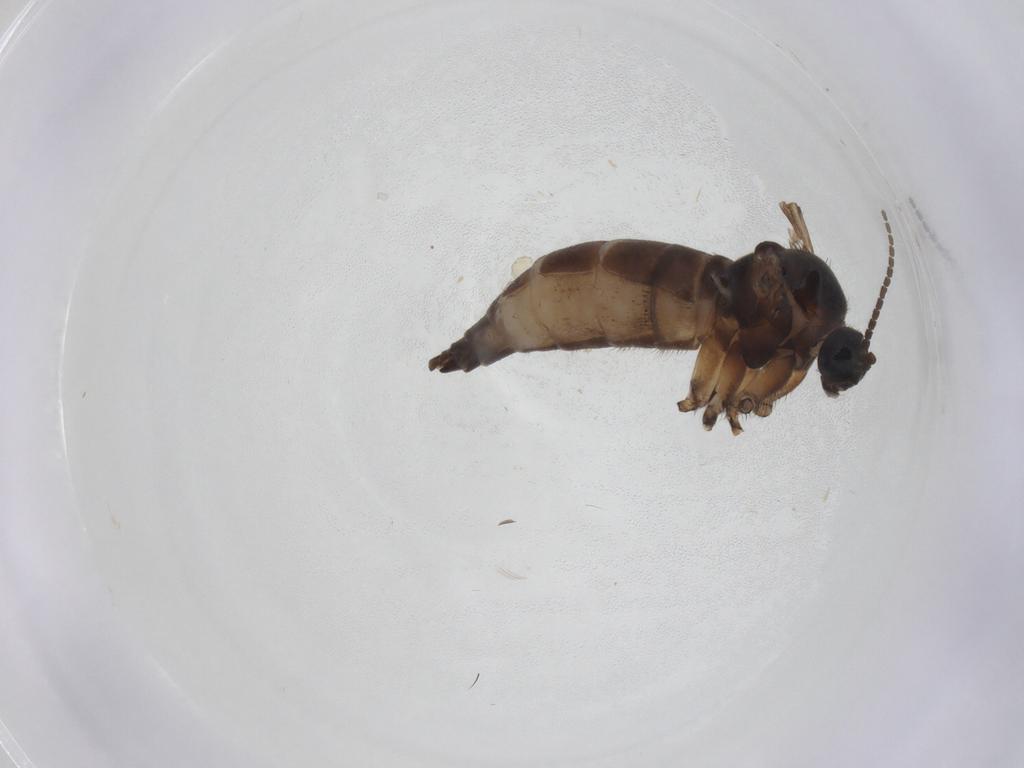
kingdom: Animalia
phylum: Arthropoda
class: Insecta
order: Diptera
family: Sciaridae
